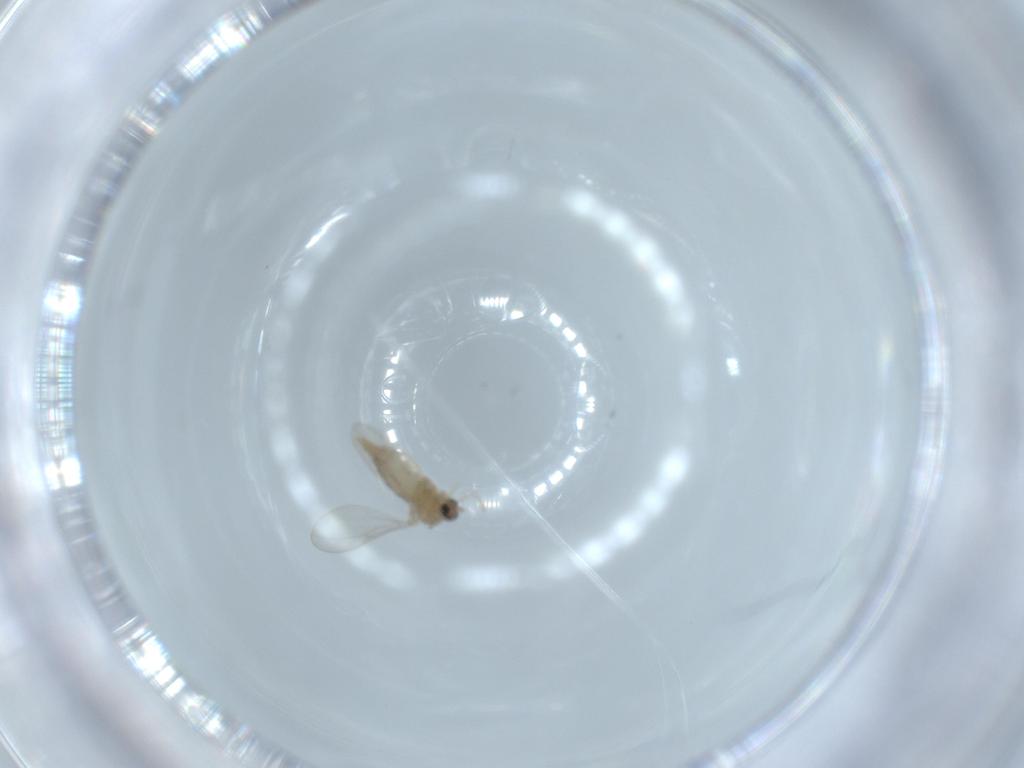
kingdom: Animalia
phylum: Arthropoda
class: Insecta
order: Diptera
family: Cecidomyiidae
